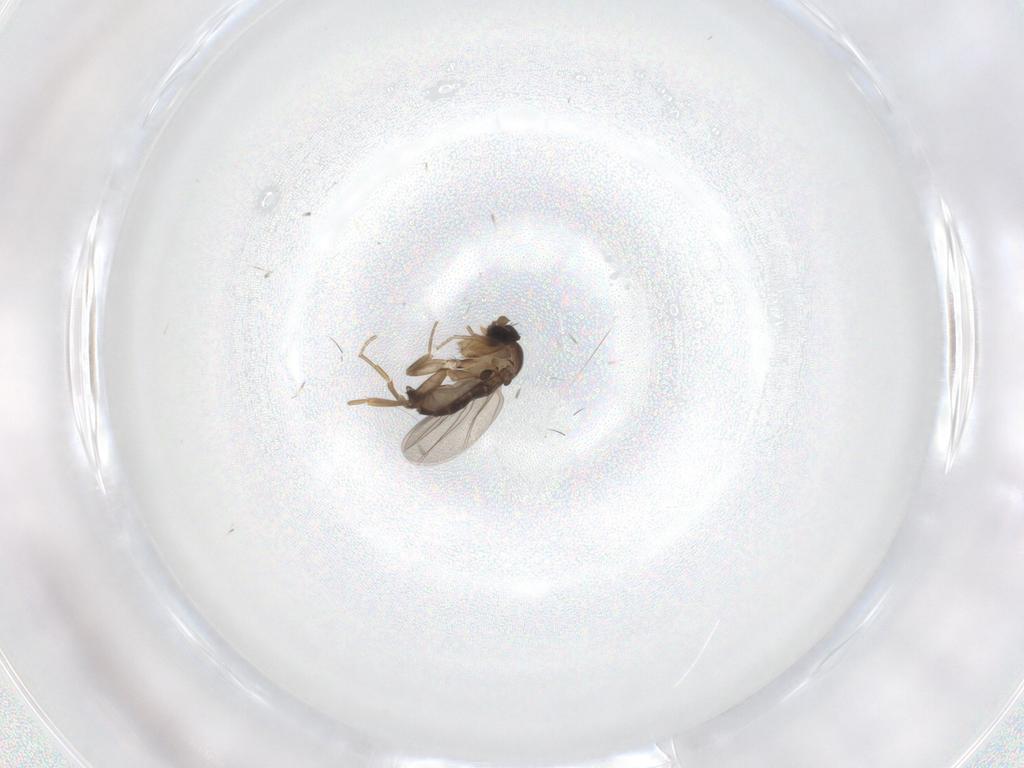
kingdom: Animalia
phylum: Arthropoda
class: Insecta
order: Diptera
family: Phoridae
